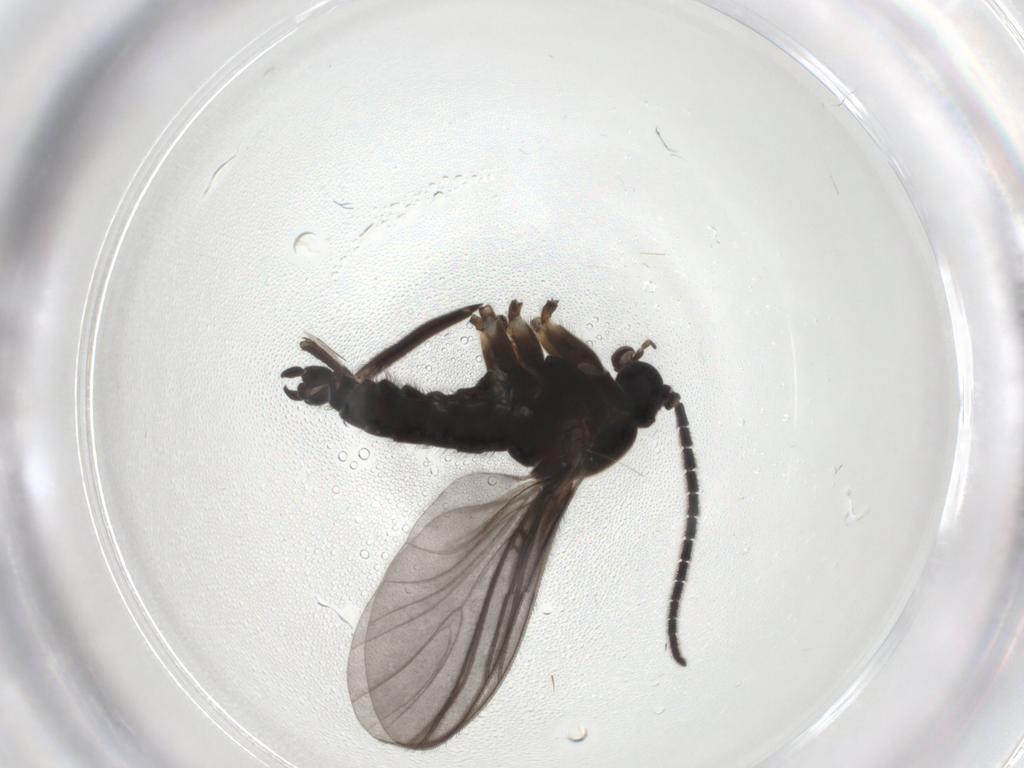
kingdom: Animalia
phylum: Arthropoda
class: Insecta
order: Diptera
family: Sciaridae
